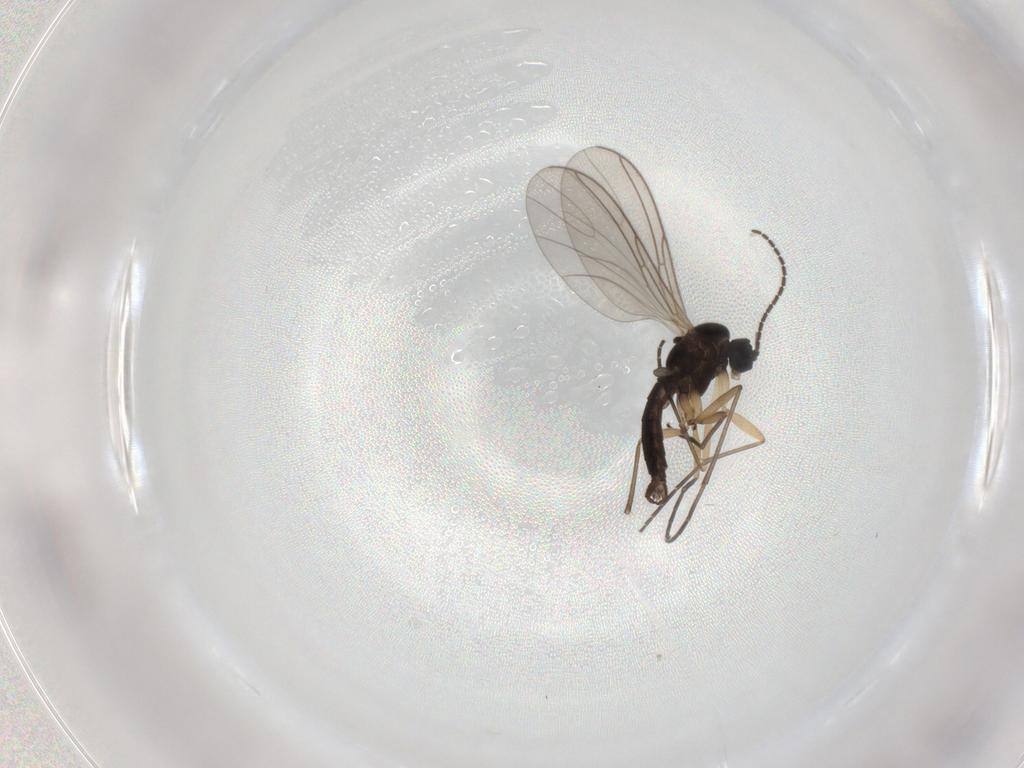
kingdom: Animalia
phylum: Arthropoda
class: Insecta
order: Diptera
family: Sciaridae
